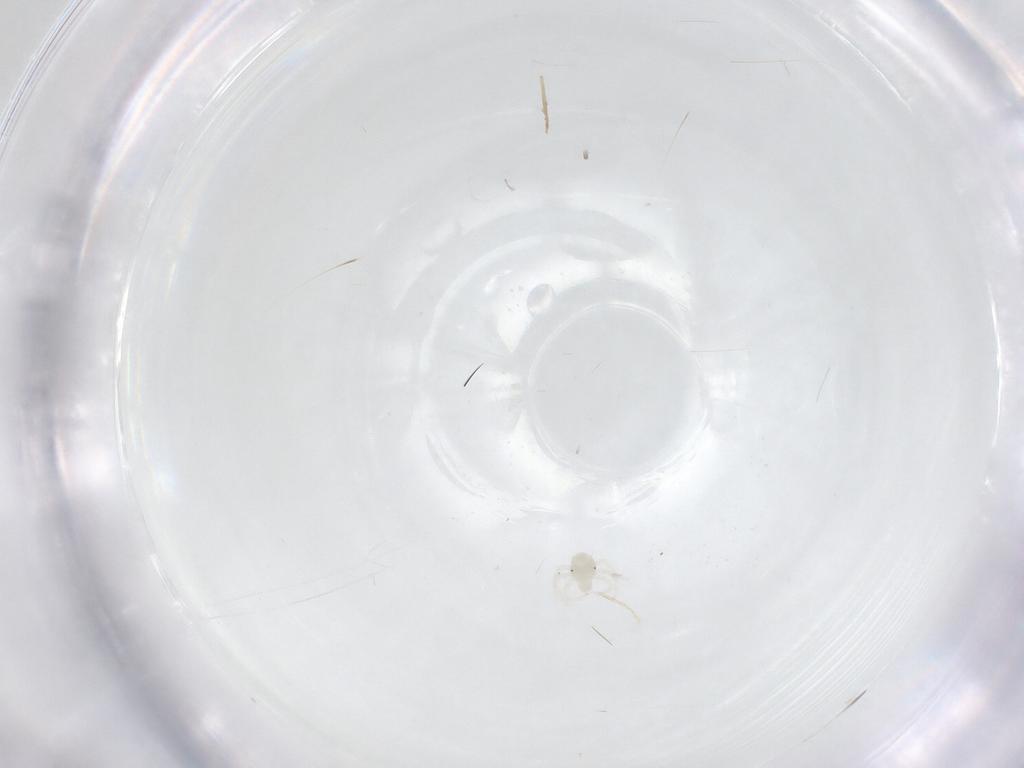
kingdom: Animalia
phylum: Arthropoda
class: Arachnida
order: Trombidiformes
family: Anystidae
